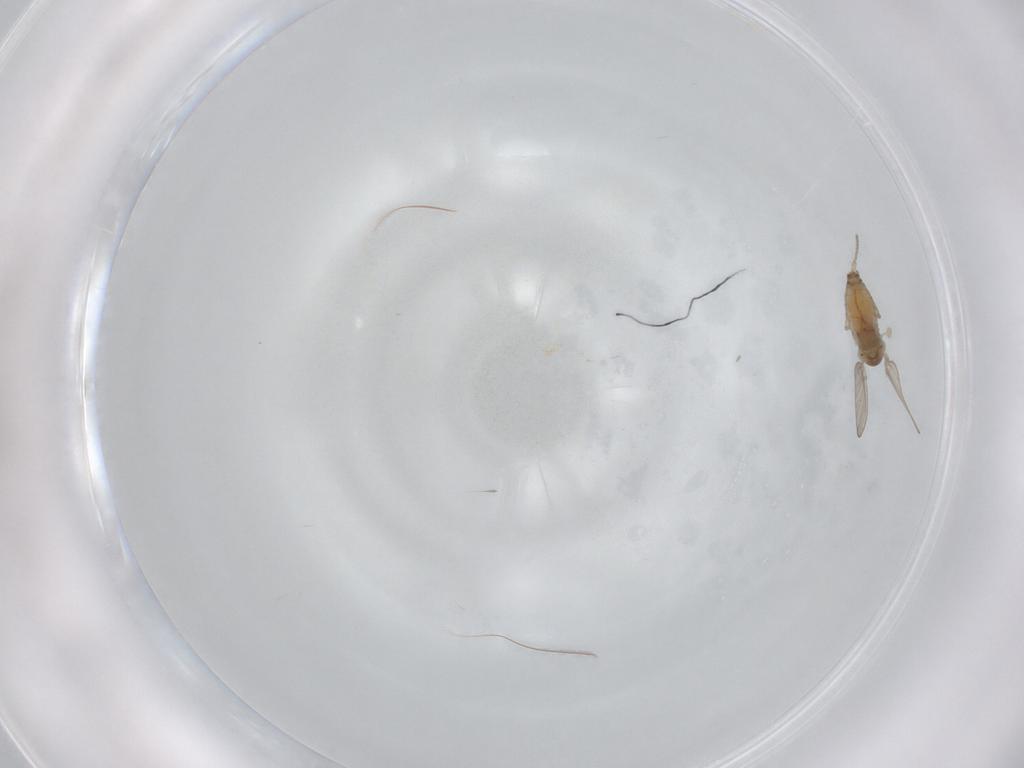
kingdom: Animalia
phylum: Arthropoda
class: Insecta
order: Diptera
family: Psychodidae
